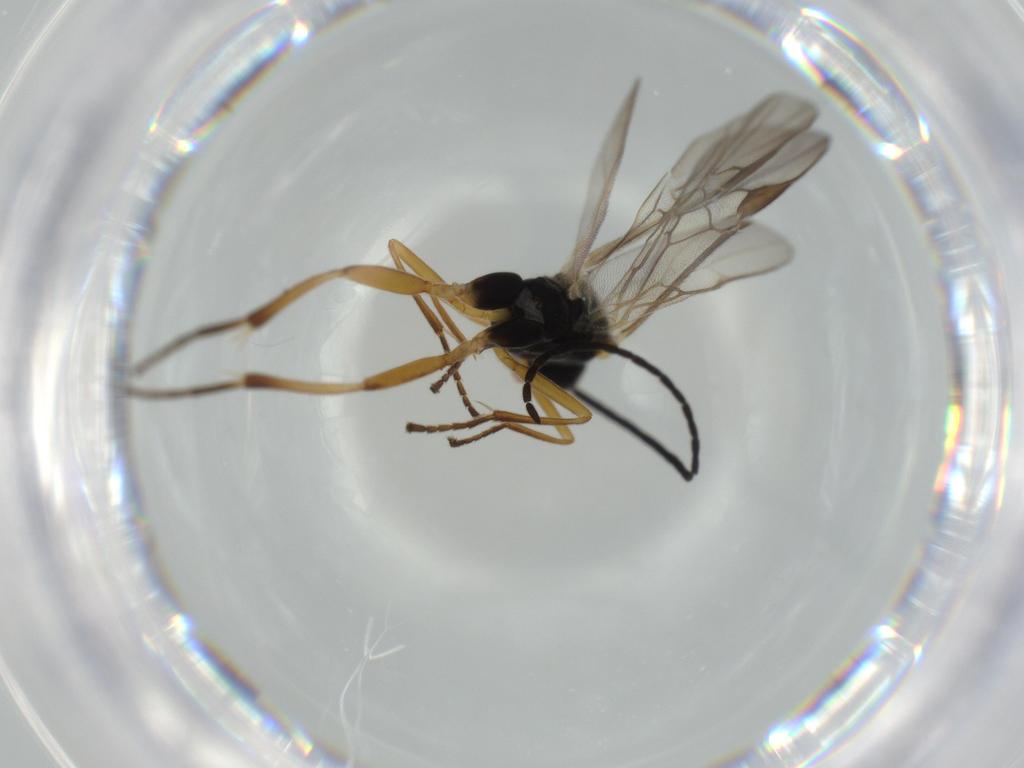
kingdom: Animalia
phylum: Arthropoda
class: Insecta
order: Hymenoptera
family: Braconidae
